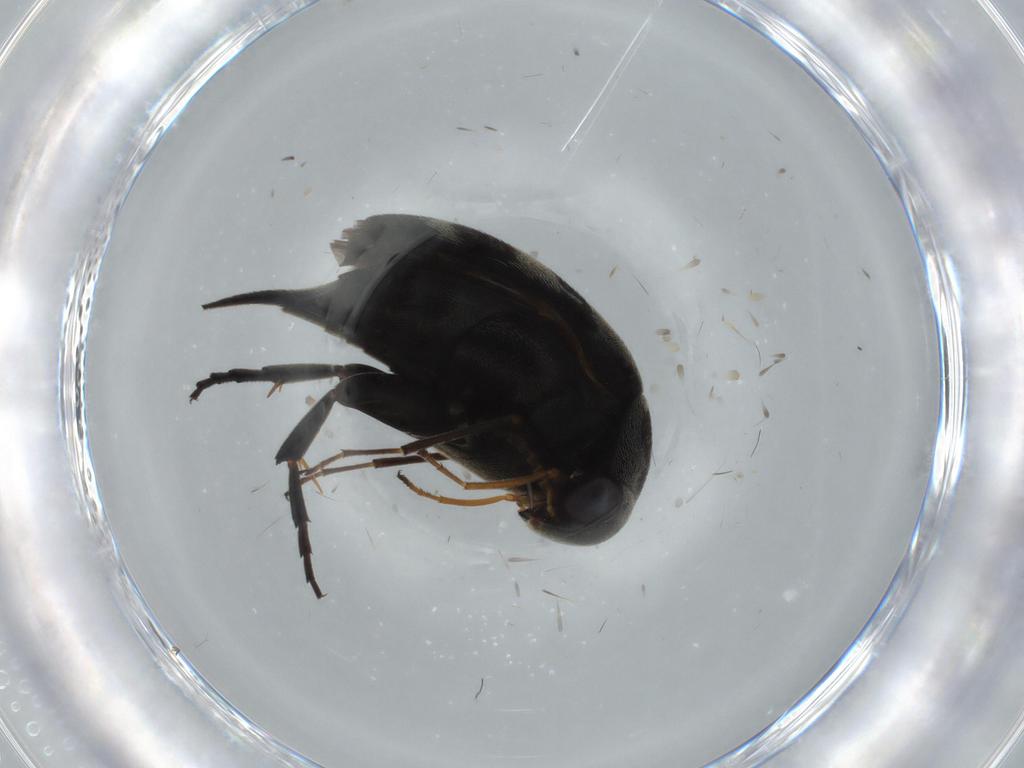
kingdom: Animalia
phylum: Arthropoda
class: Insecta
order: Coleoptera
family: Mordellidae
